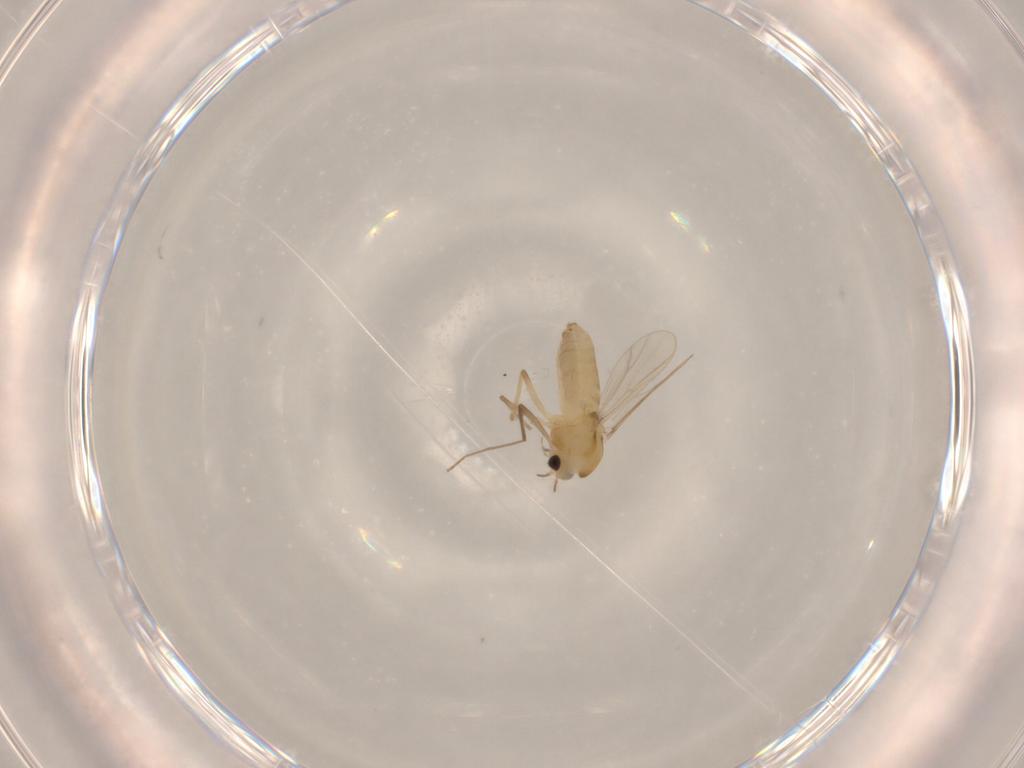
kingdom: Animalia
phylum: Arthropoda
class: Insecta
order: Diptera
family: Chironomidae
